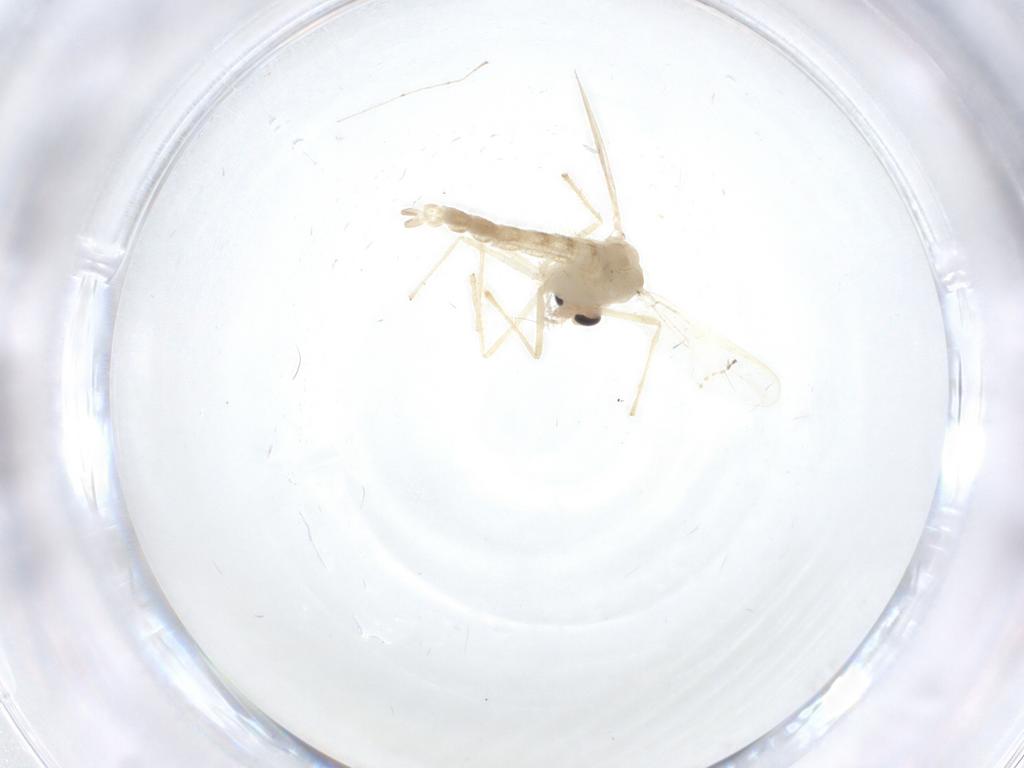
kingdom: Animalia
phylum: Arthropoda
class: Insecta
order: Diptera
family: Chironomidae
